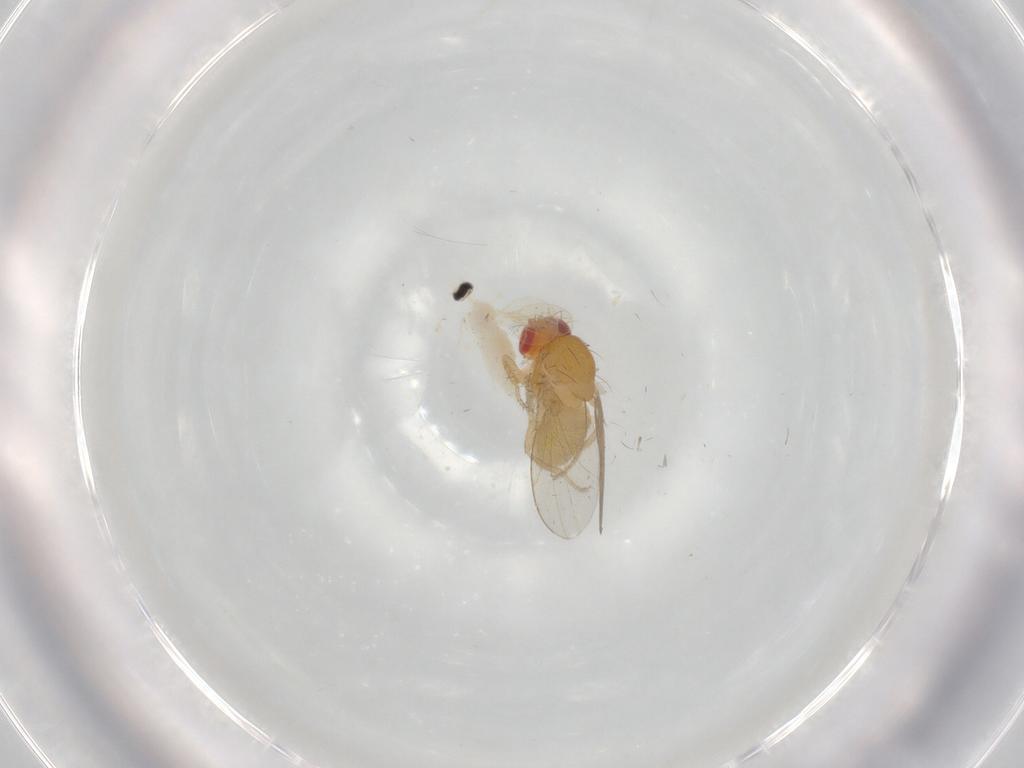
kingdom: Animalia
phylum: Arthropoda
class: Insecta
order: Diptera
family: Cecidomyiidae
